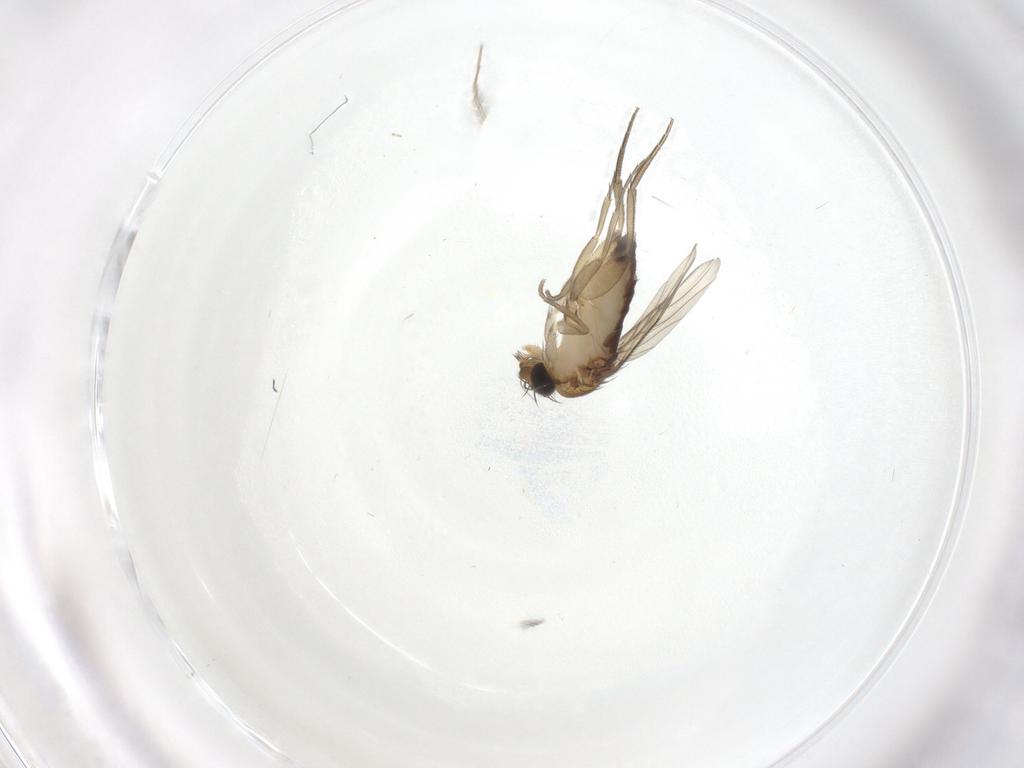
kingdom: Animalia
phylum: Arthropoda
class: Insecta
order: Diptera
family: Phoridae
